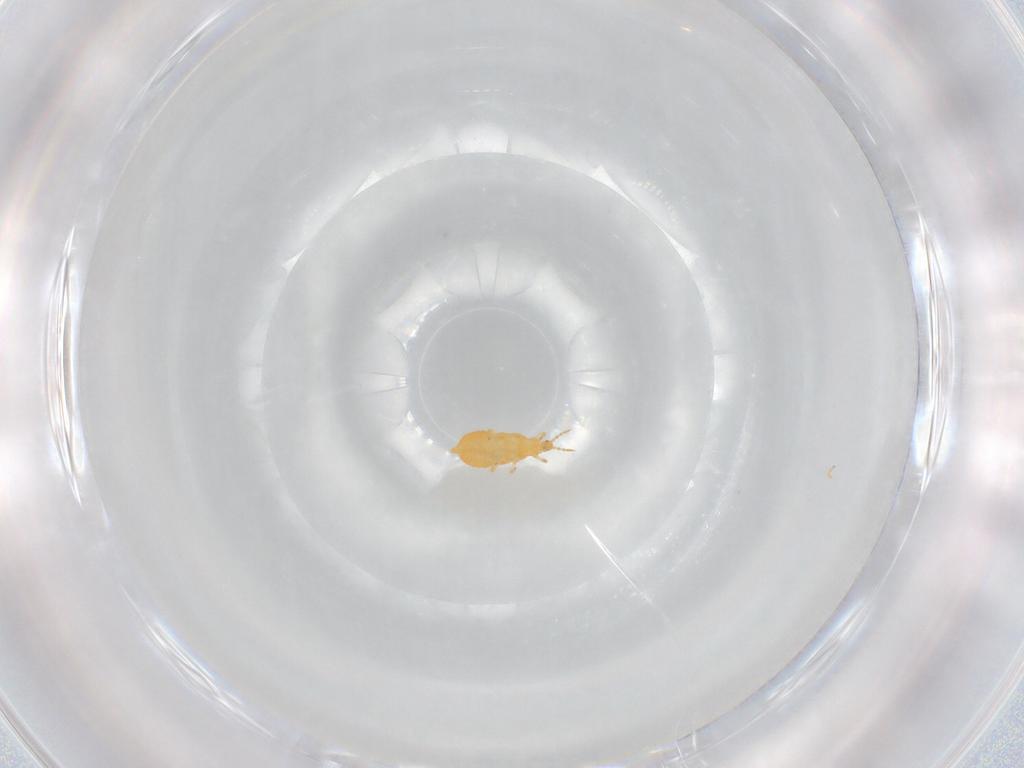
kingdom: Animalia
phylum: Arthropoda
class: Insecta
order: Thysanoptera
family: Heterothripidae
